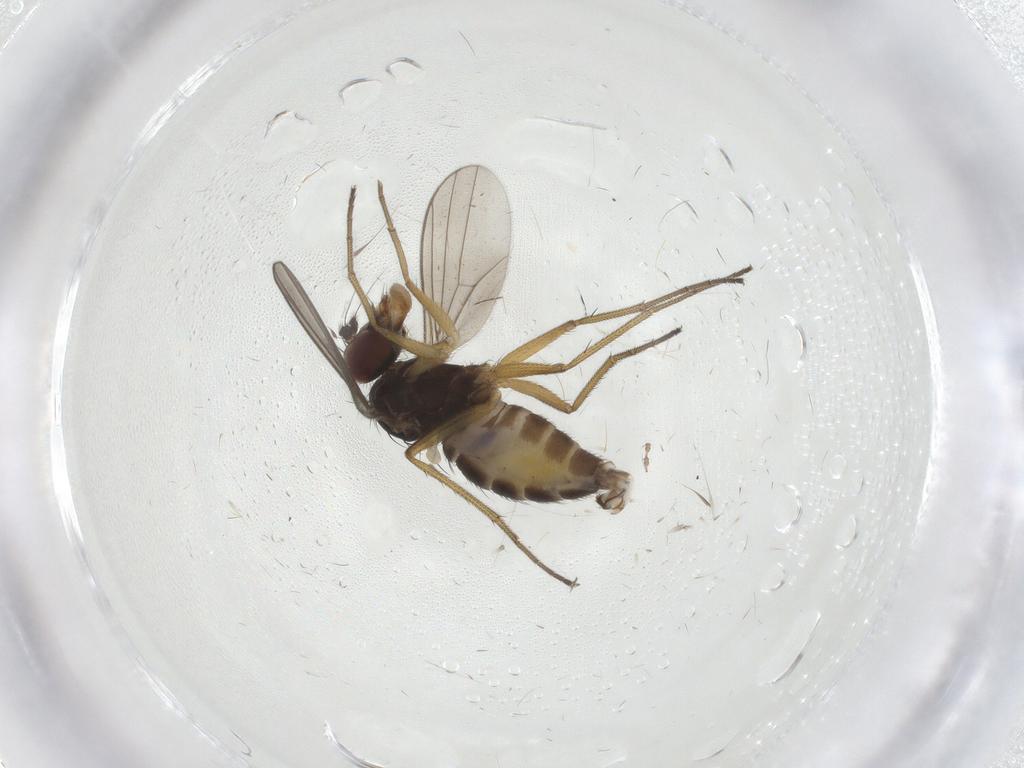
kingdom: Animalia
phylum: Arthropoda
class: Insecta
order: Diptera
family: Dolichopodidae
